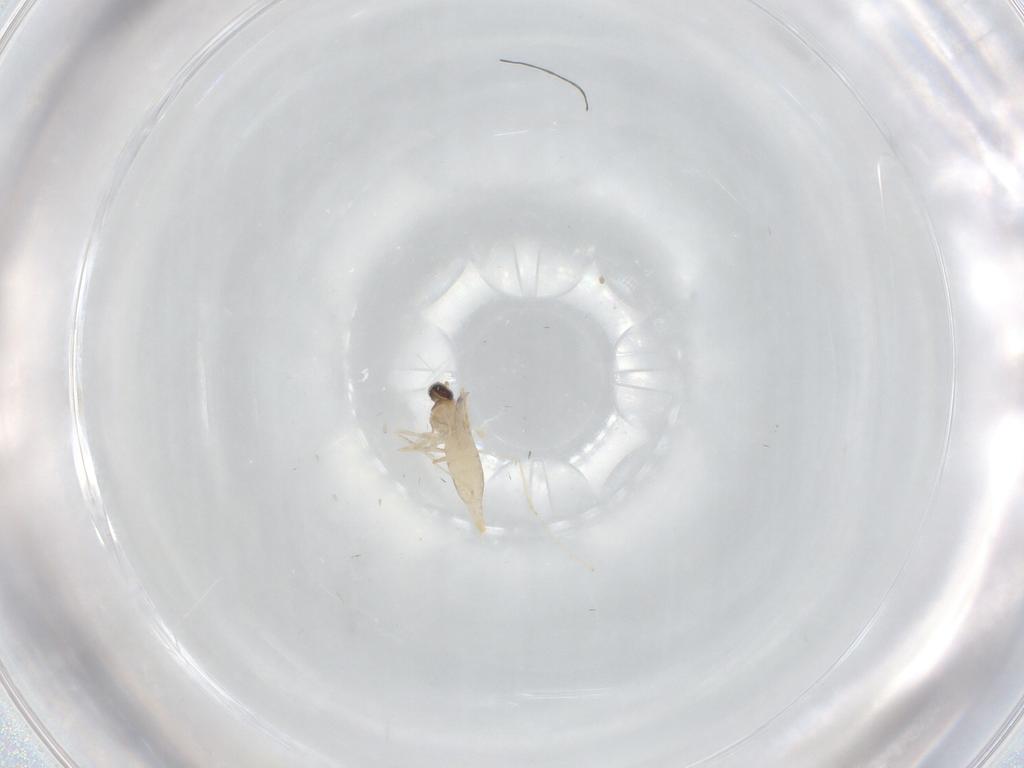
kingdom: Animalia
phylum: Arthropoda
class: Insecta
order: Diptera
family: Cecidomyiidae
